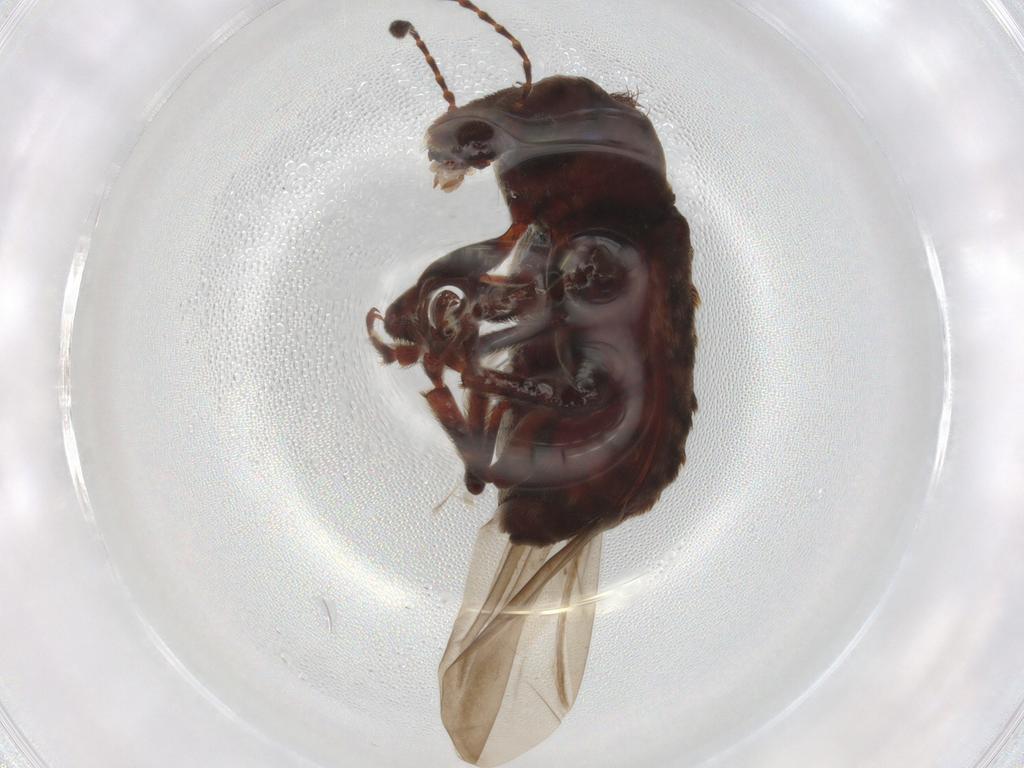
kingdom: Animalia
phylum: Arthropoda
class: Insecta
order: Coleoptera
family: Anthribidae
